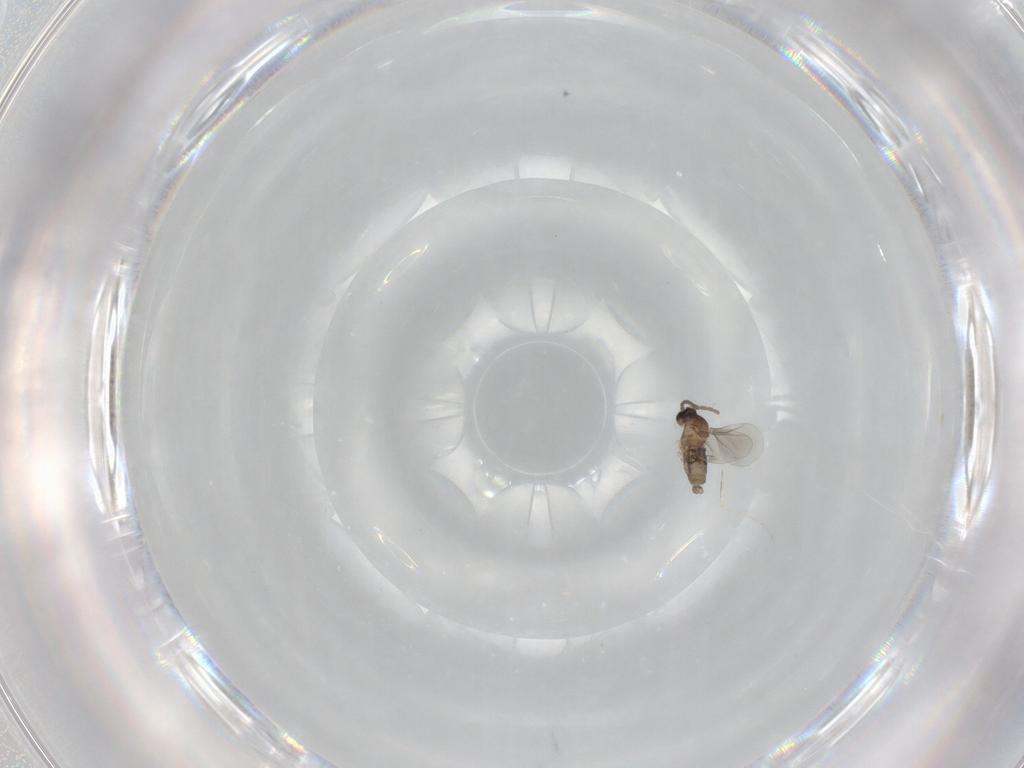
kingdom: Animalia
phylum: Arthropoda
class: Insecta
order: Diptera
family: Cecidomyiidae
